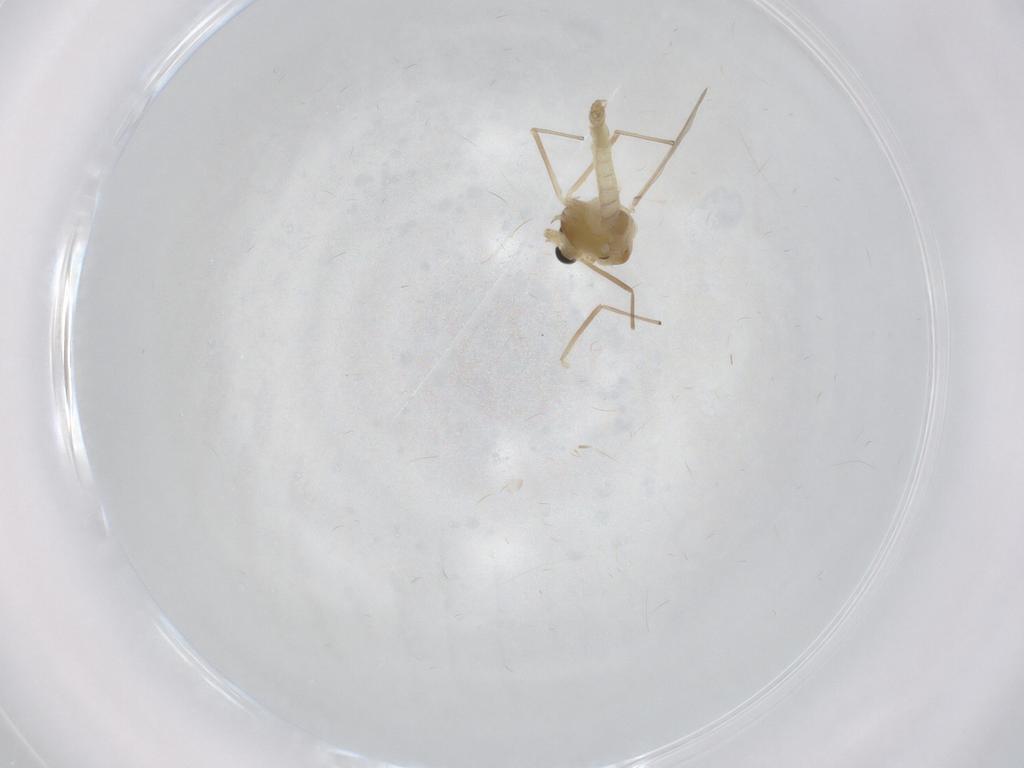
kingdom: Animalia
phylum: Arthropoda
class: Insecta
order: Diptera
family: Chironomidae
